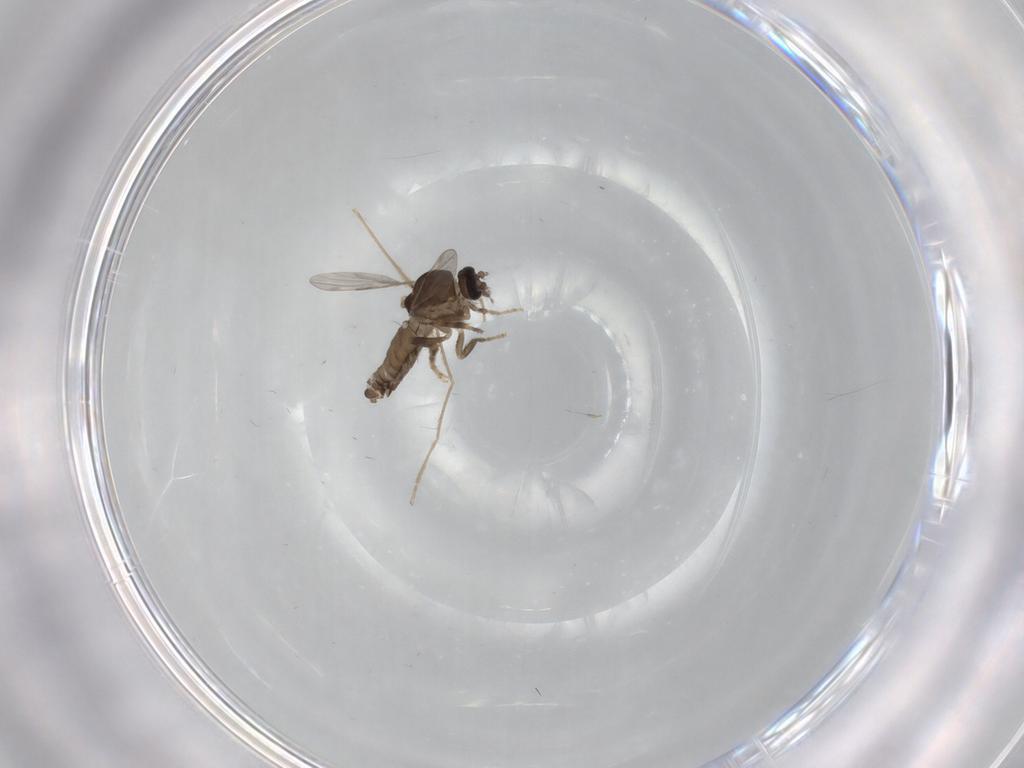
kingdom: Animalia
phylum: Arthropoda
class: Insecta
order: Diptera
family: Ceratopogonidae
